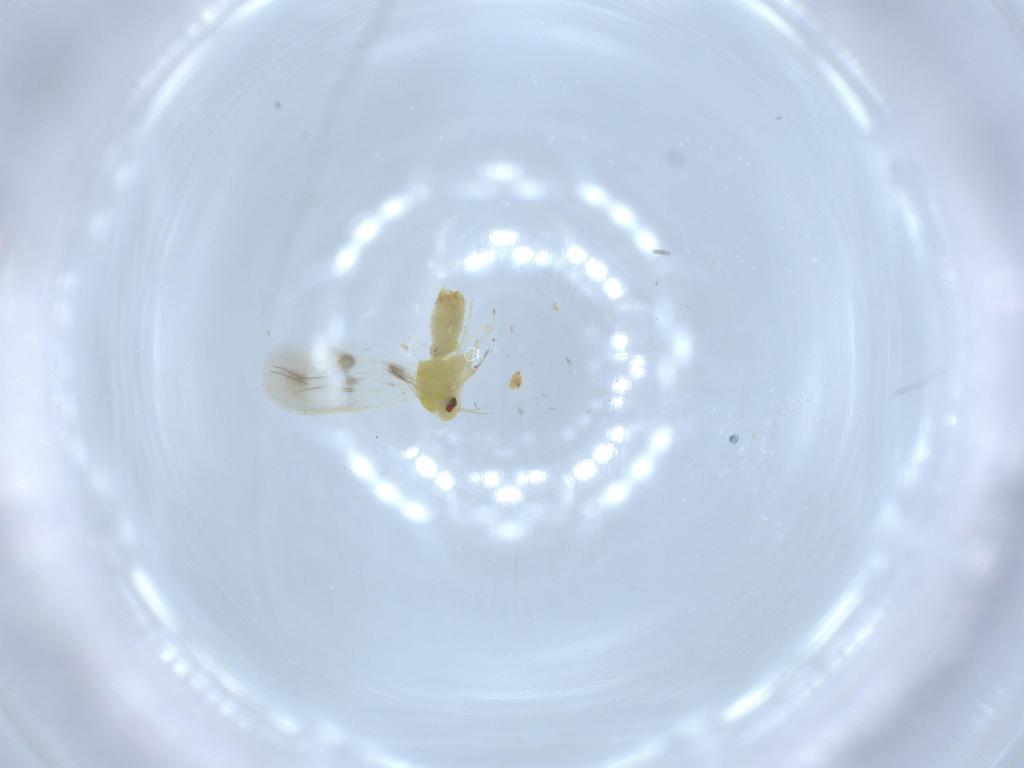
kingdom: Animalia
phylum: Arthropoda
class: Insecta
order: Hemiptera
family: Aleyrodidae
